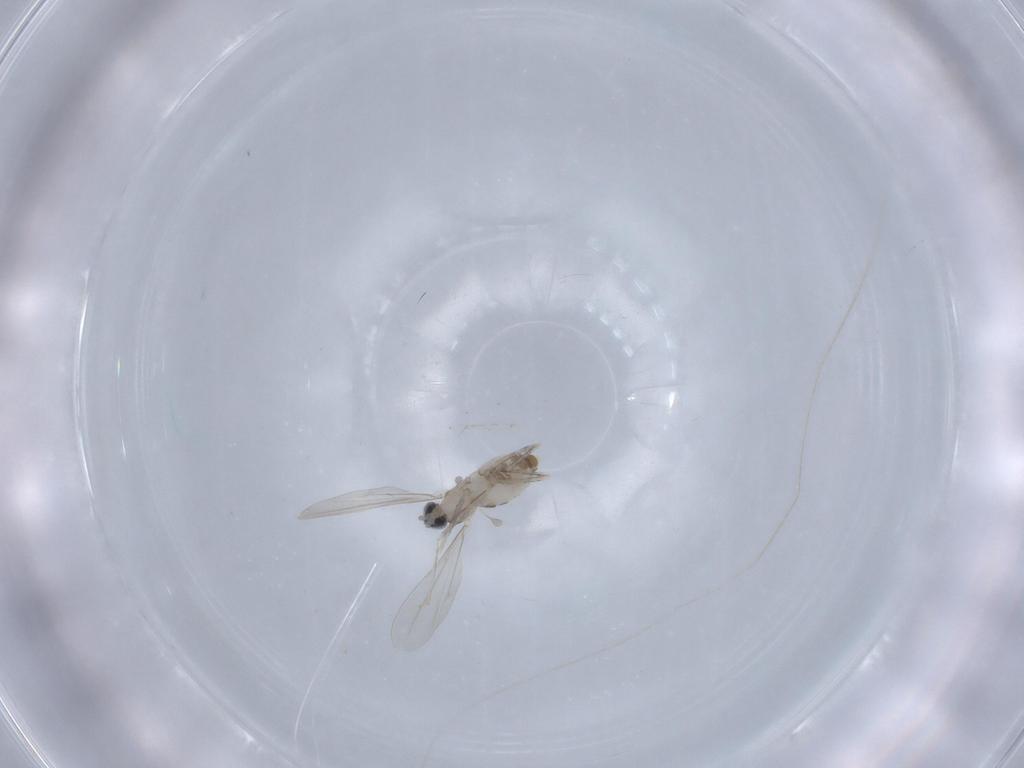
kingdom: Animalia
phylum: Arthropoda
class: Insecta
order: Diptera
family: Cecidomyiidae
